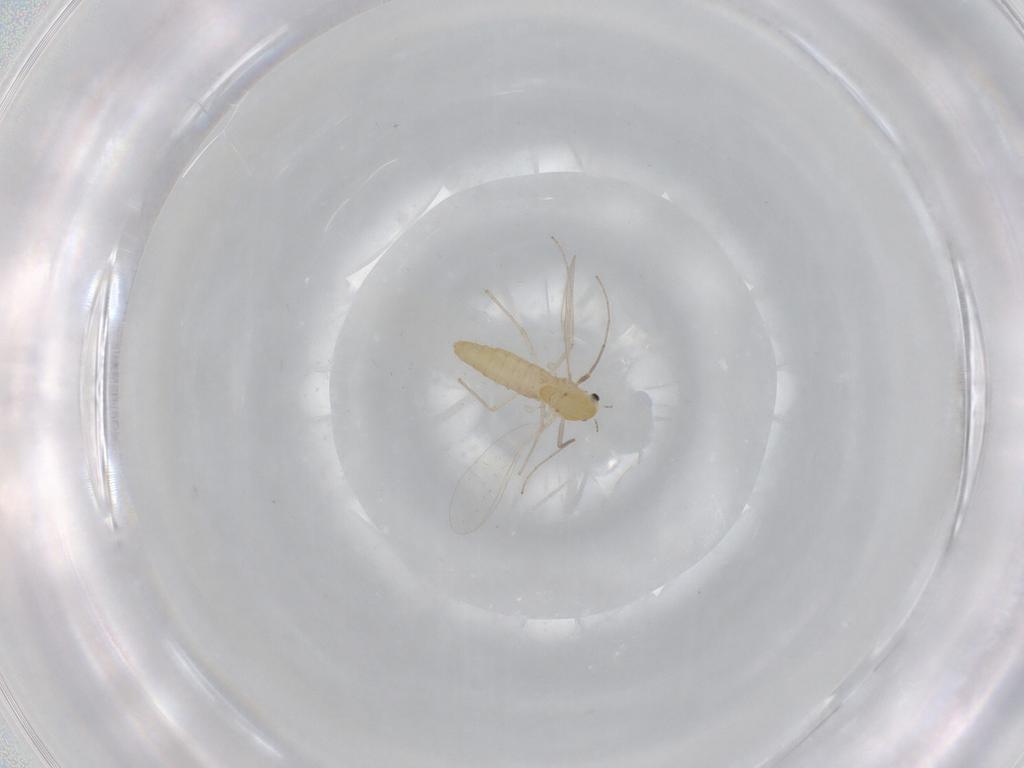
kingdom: Animalia
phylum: Arthropoda
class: Insecta
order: Diptera
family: Chironomidae
